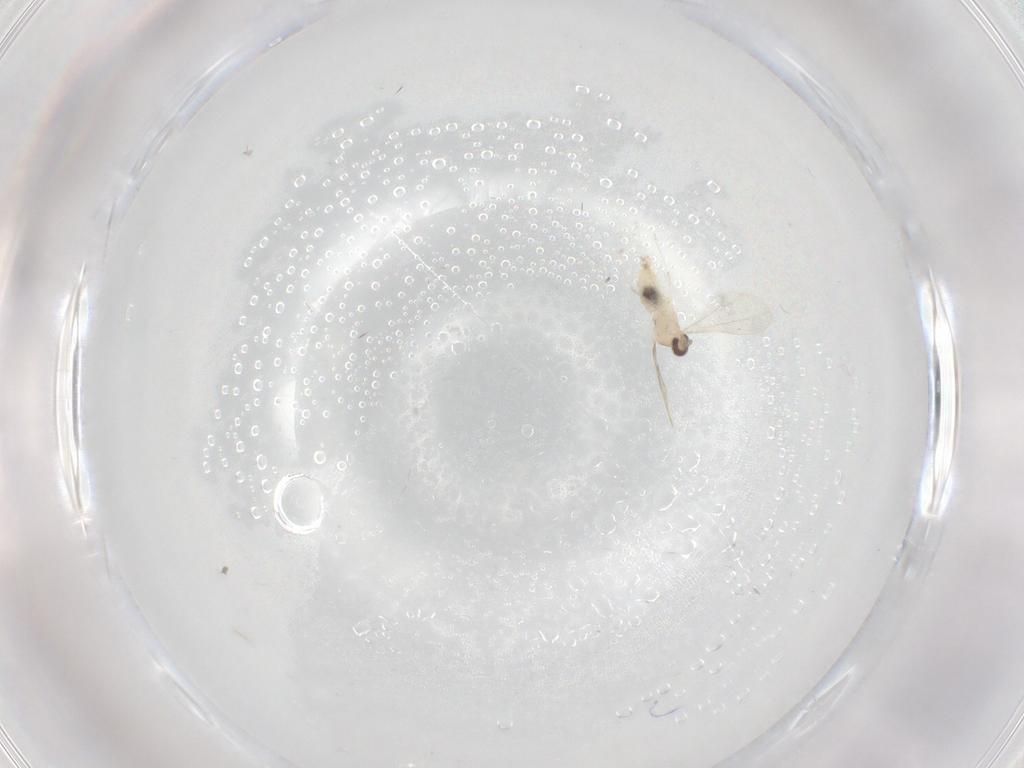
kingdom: Animalia
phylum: Arthropoda
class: Insecta
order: Diptera
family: Cecidomyiidae
